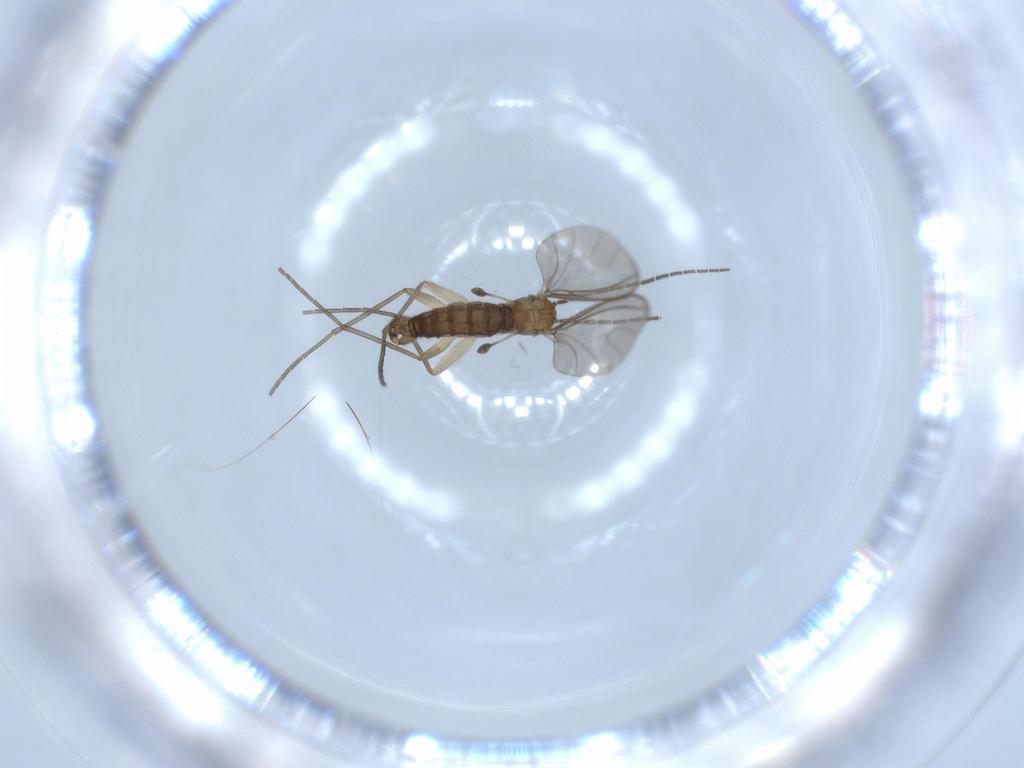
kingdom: Animalia
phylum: Arthropoda
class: Insecta
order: Diptera
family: Sciaridae
